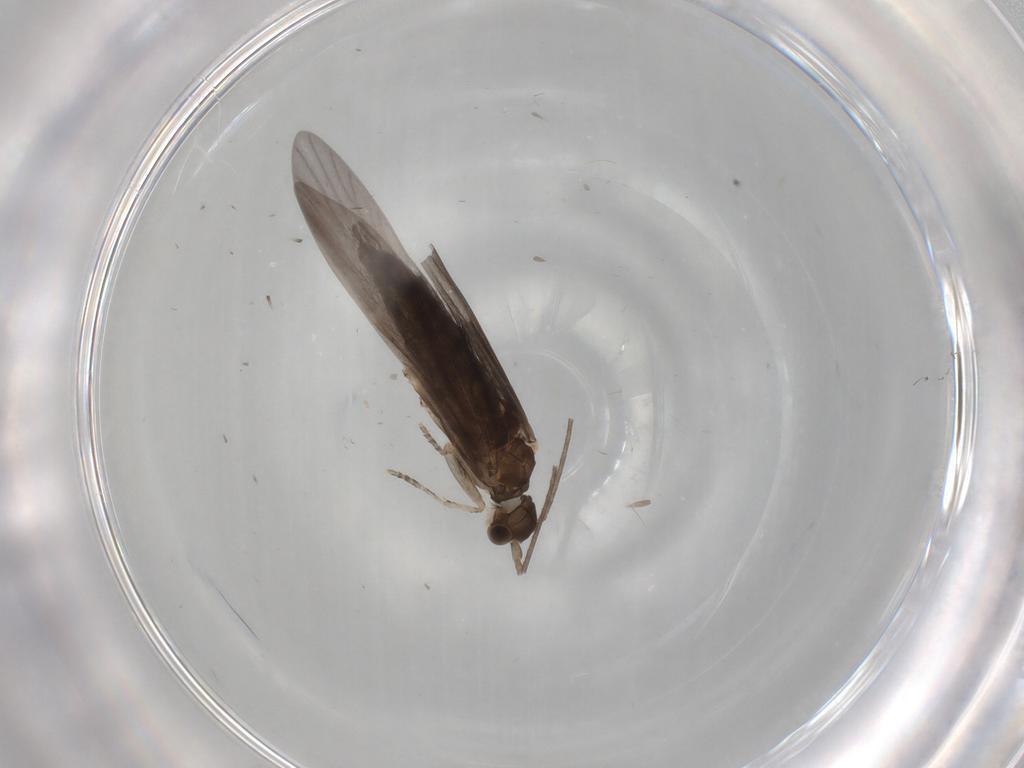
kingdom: Animalia
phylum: Arthropoda
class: Insecta
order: Trichoptera
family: Xiphocentronidae
